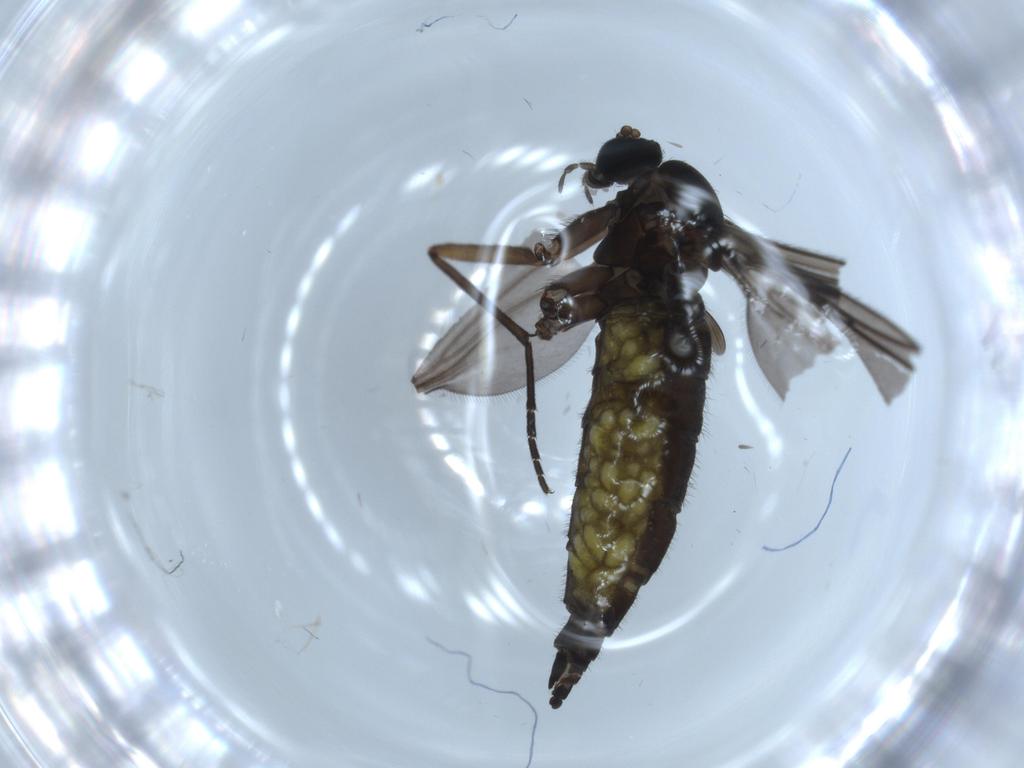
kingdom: Animalia
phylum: Arthropoda
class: Insecta
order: Diptera
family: Sciaridae
